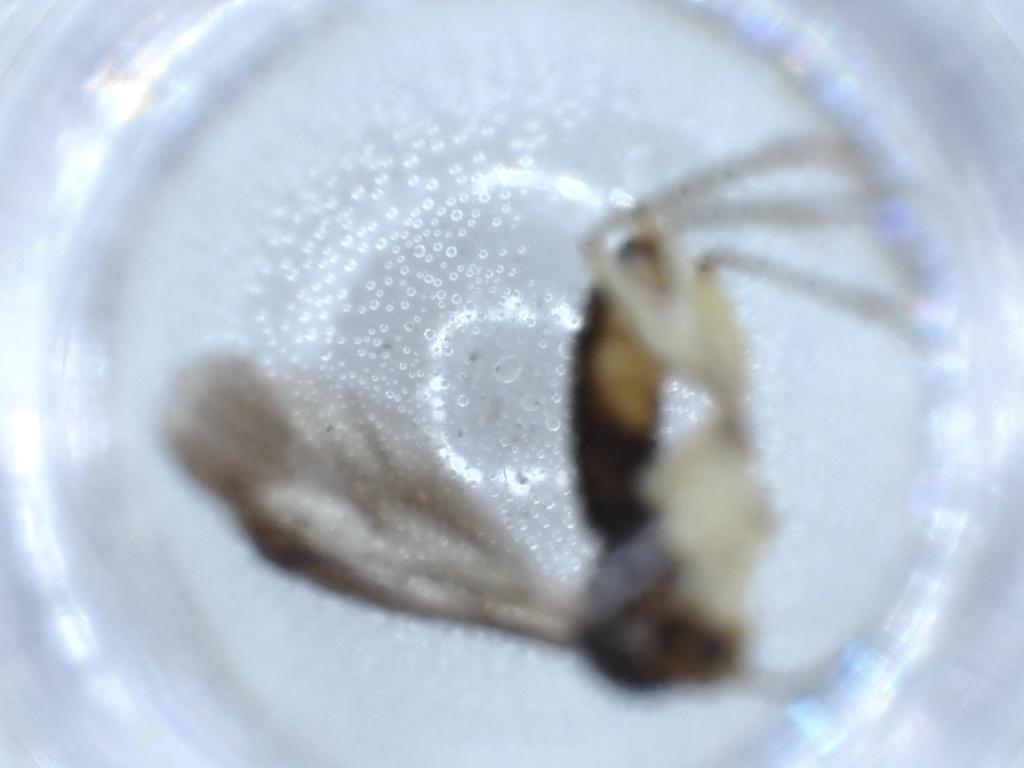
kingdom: Animalia
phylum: Arthropoda
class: Insecta
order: Diptera
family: Mycetophilidae
